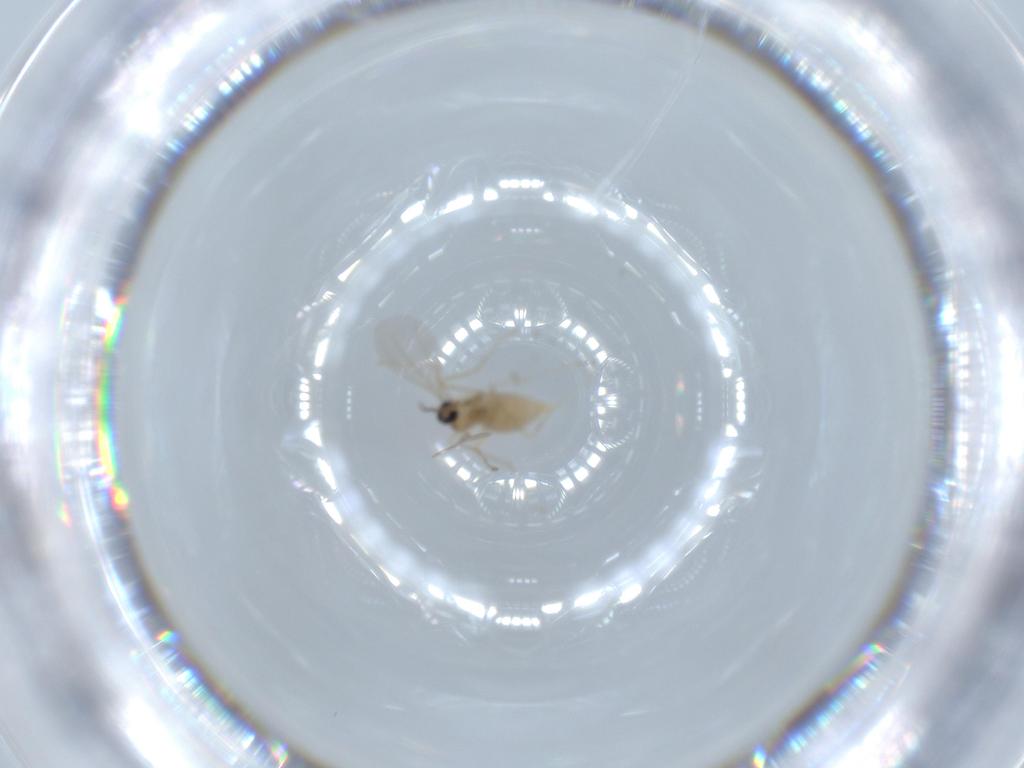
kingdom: Animalia
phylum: Arthropoda
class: Insecta
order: Diptera
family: Cecidomyiidae
